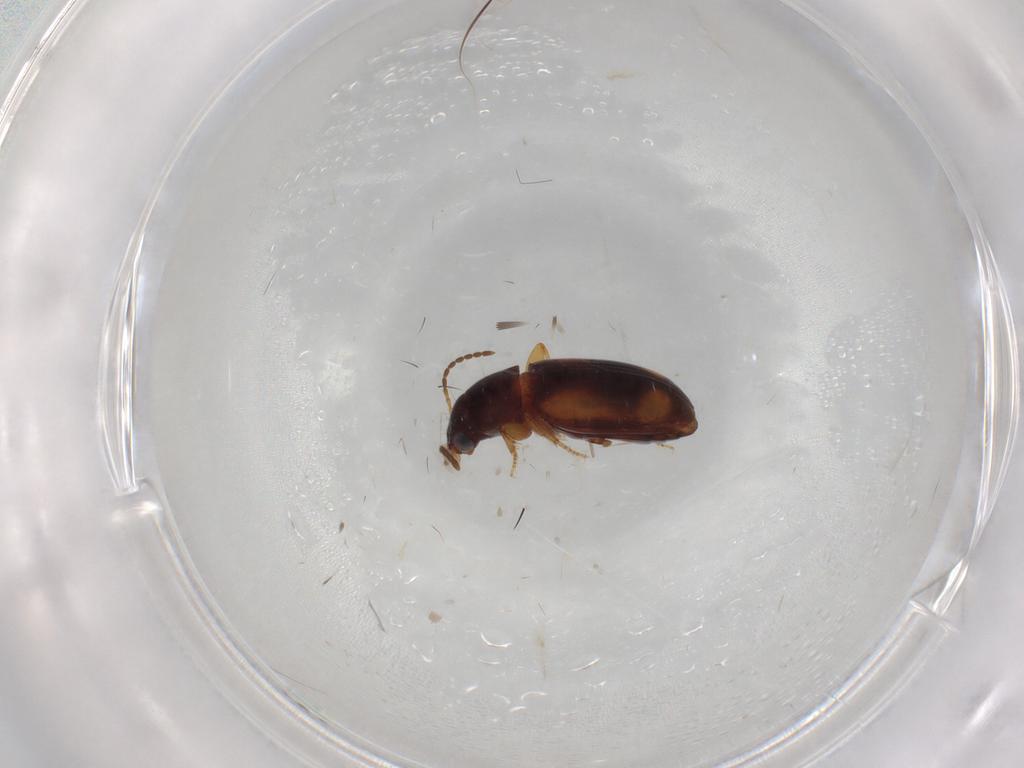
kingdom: Animalia
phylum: Arthropoda
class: Insecta
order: Coleoptera
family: Carabidae
